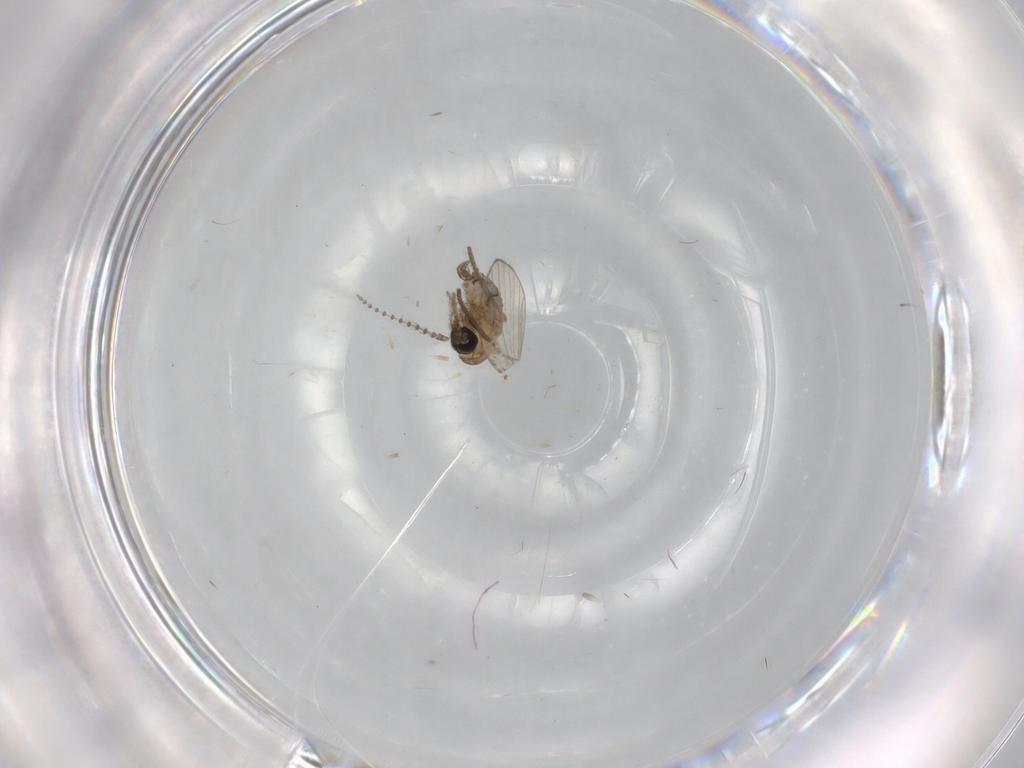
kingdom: Animalia
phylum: Arthropoda
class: Insecta
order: Diptera
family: Psychodidae
